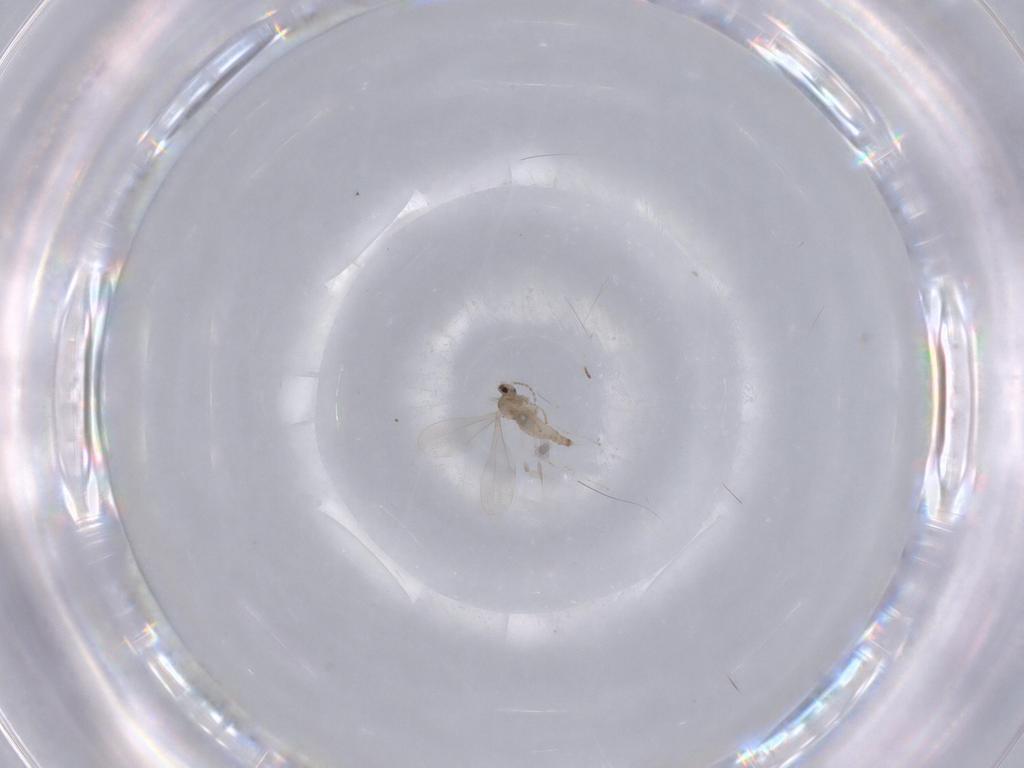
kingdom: Animalia
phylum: Arthropoda
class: Insecta
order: Diptera
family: Cecidomyiidae
